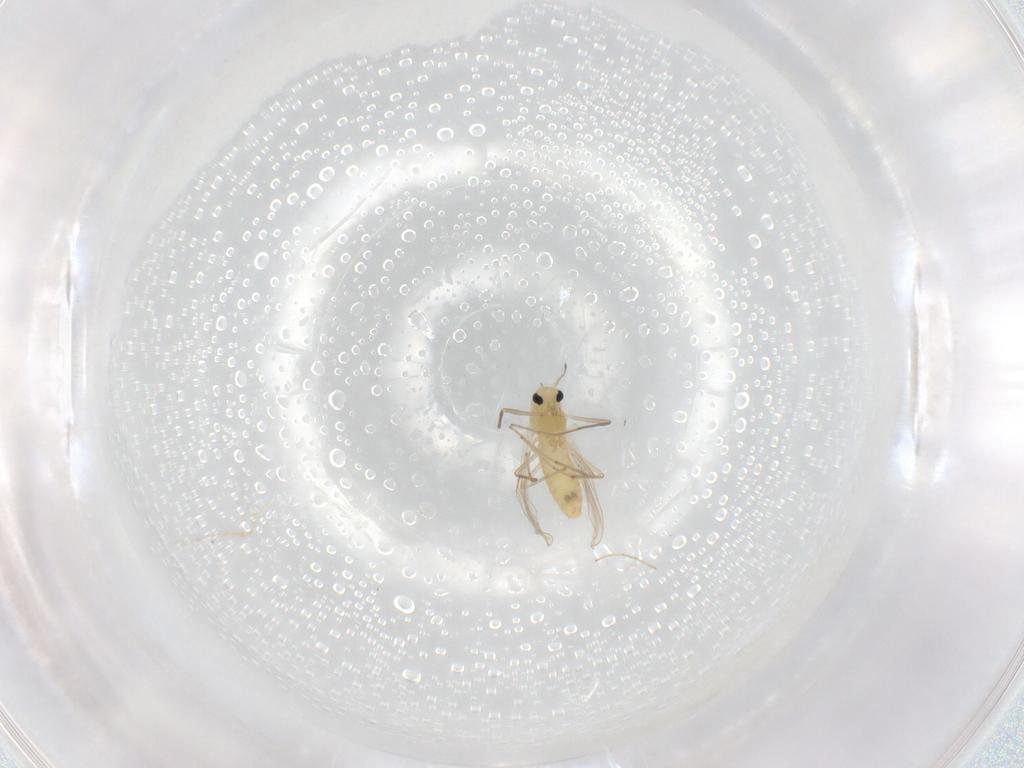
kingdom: Animalia
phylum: Arthropoda
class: Insecta
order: Diptera
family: Chironomidae
